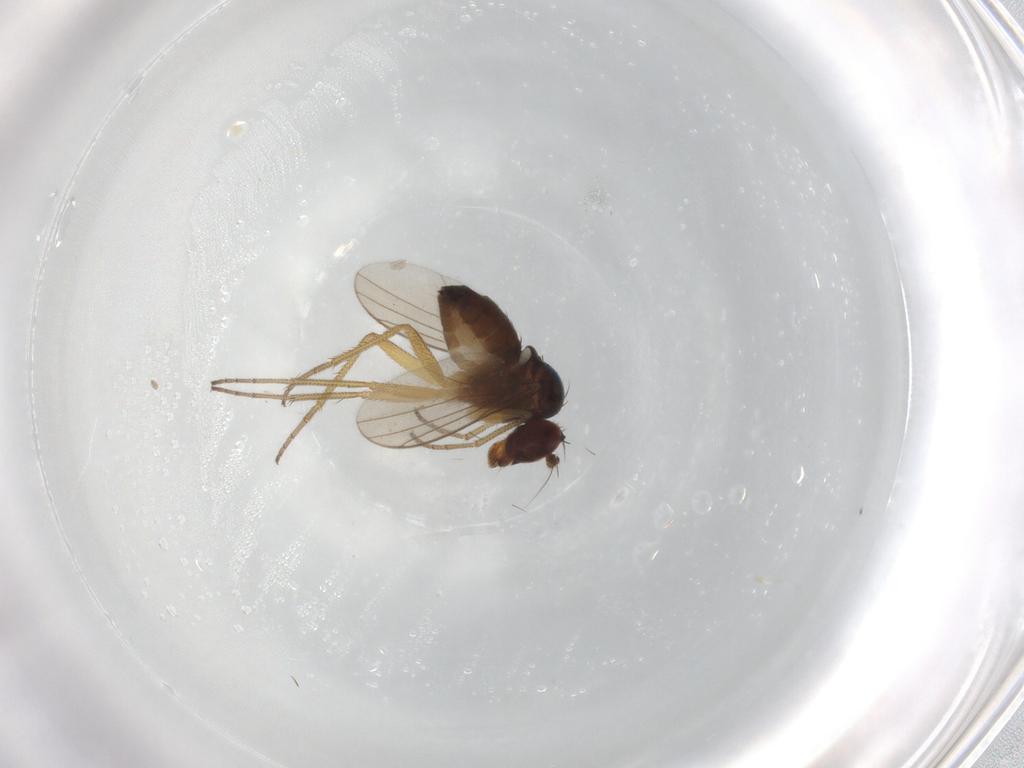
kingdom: Animalia
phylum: Arthropoda
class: Insecta
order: Diptera
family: Dolichopodidae
